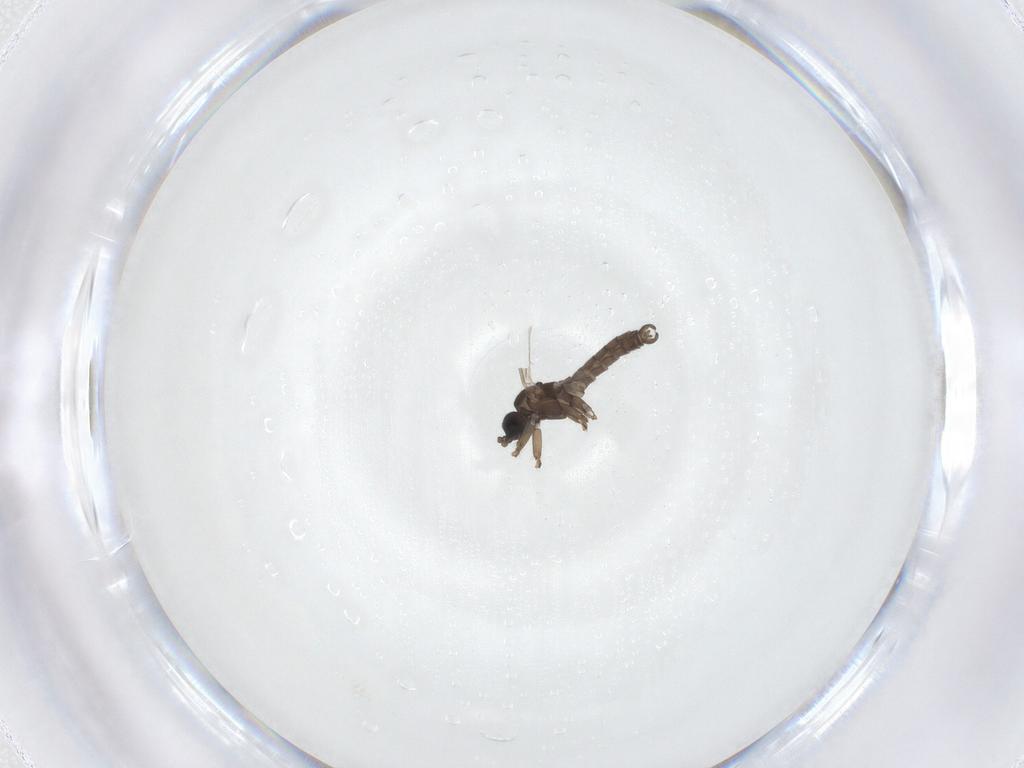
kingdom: Animalia
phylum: Arthropoda
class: Insecta
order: Diptera
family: Sciaridae
